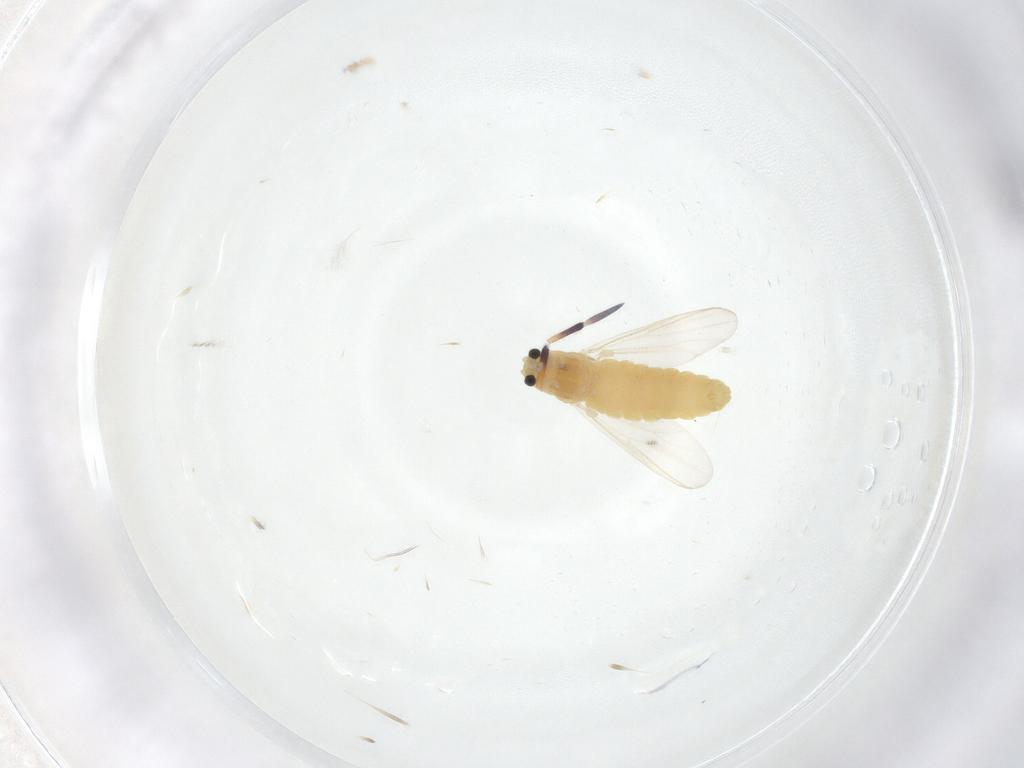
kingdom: Animalia
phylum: Arthropoda
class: Insecta
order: Diptera
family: Chironomidae
